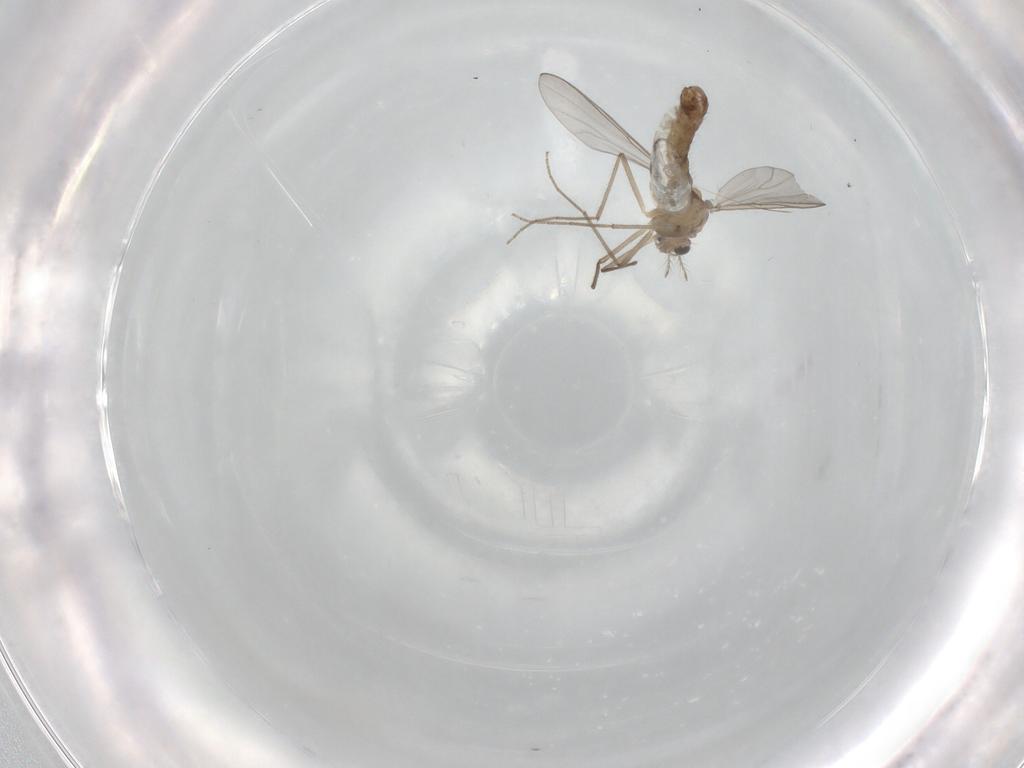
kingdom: Animalia
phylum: Arthropoda
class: Insecta
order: Diptera
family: Chironomidae
